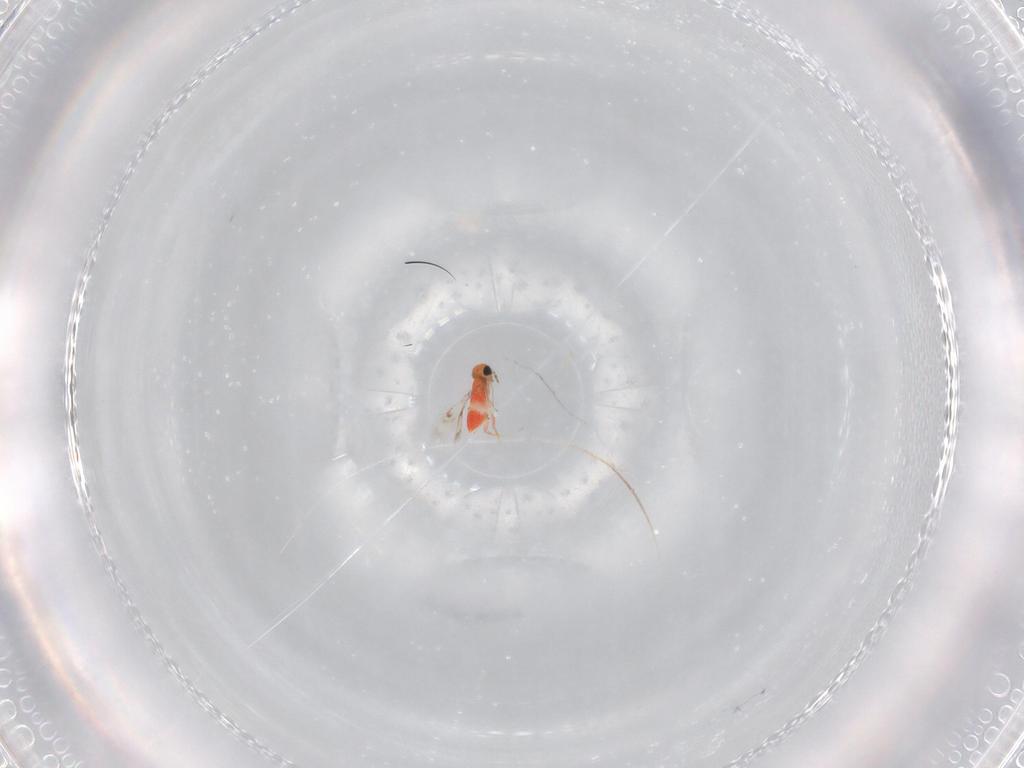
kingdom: Animalia
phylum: Arthropoda
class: Insecta
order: Hymenoptera
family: Trichogrammatidae
